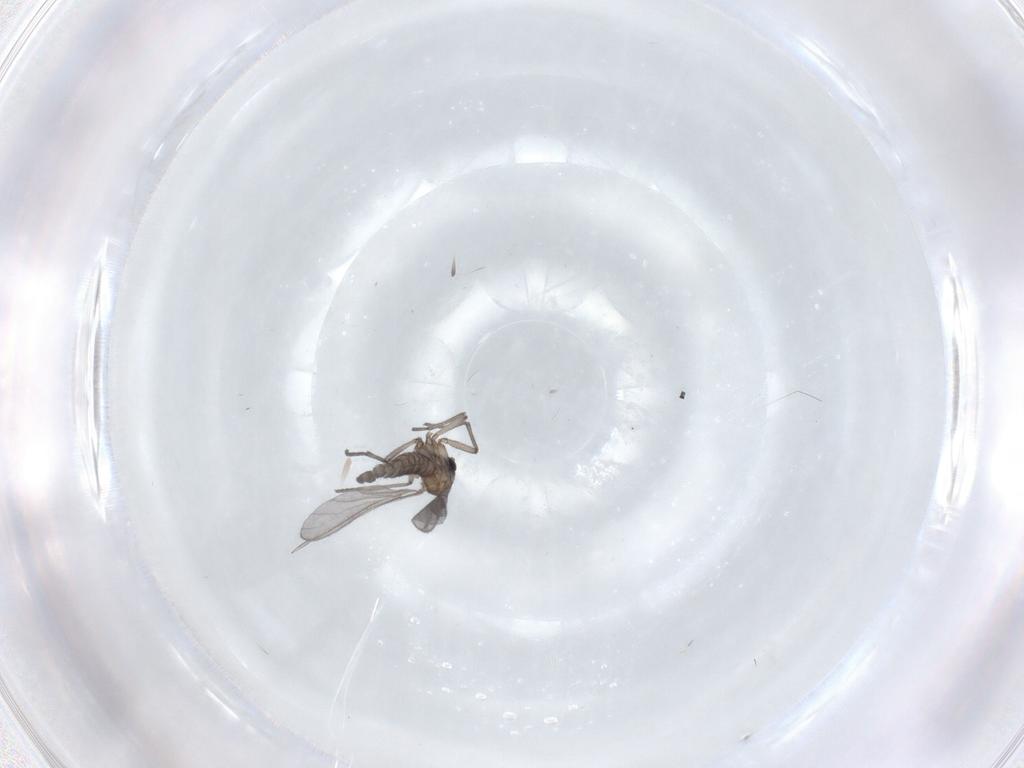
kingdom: Animalia
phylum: Arthropoda
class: Insecta
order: Diptera
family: Sciaridae
